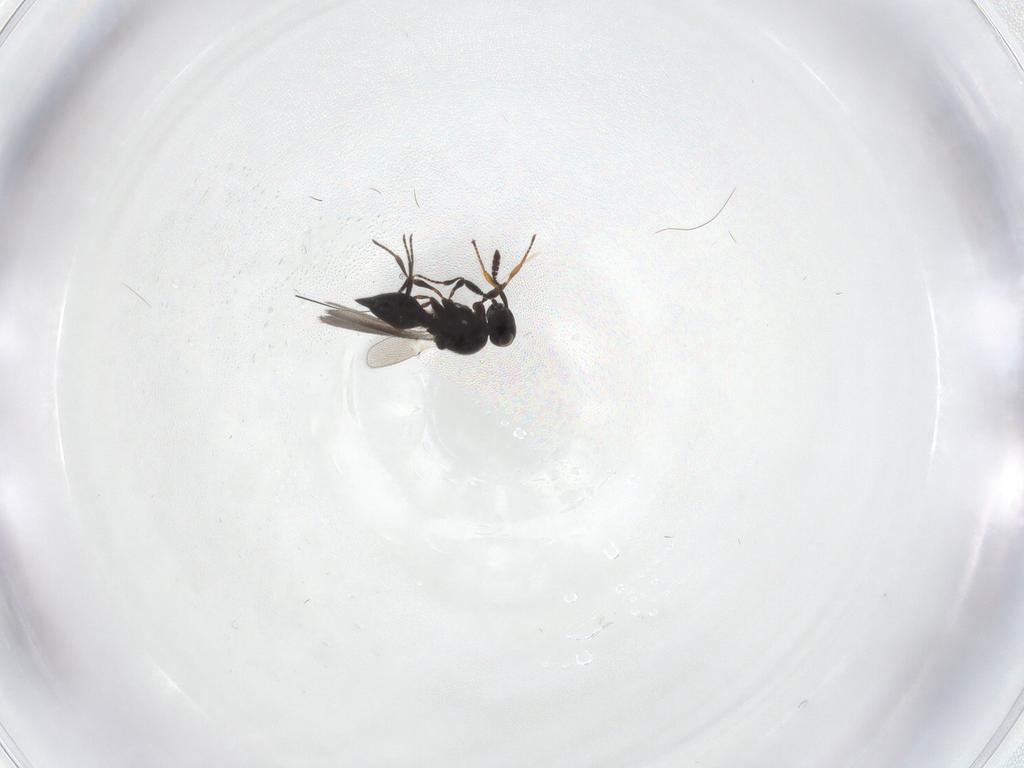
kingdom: Animalia
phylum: Arthropoda
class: Insecta
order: Hymenoptera
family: Platygastridae
